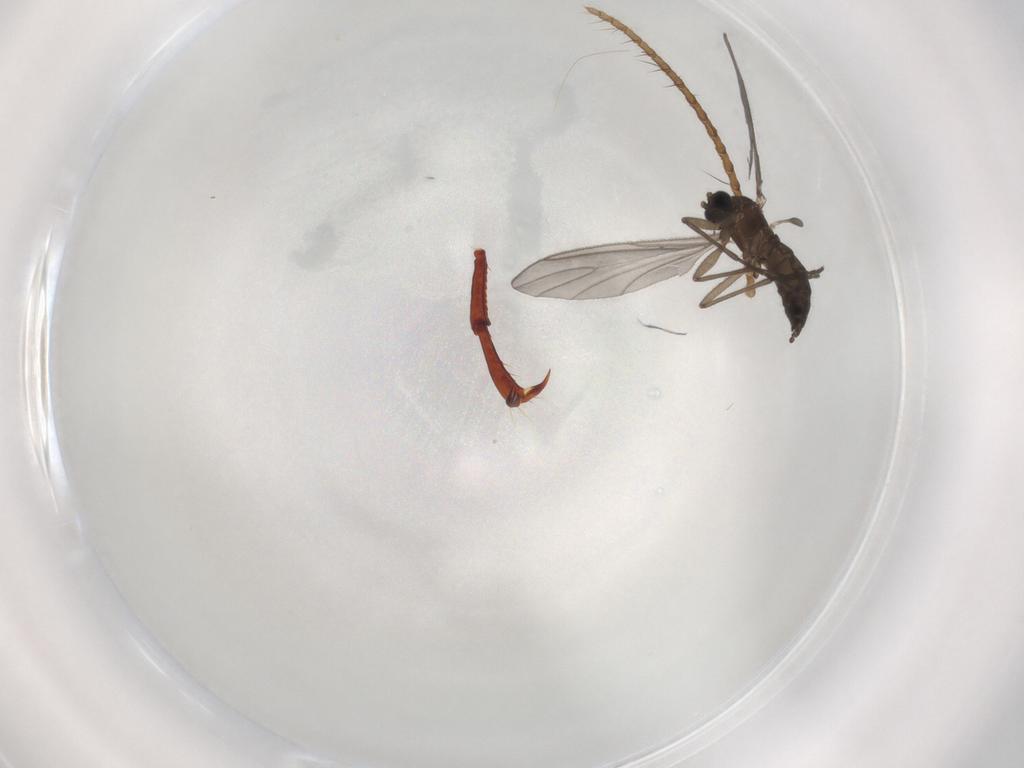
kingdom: Animalia
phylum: Arthropoda
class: Insecta
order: Diptera
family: Sciaridae
